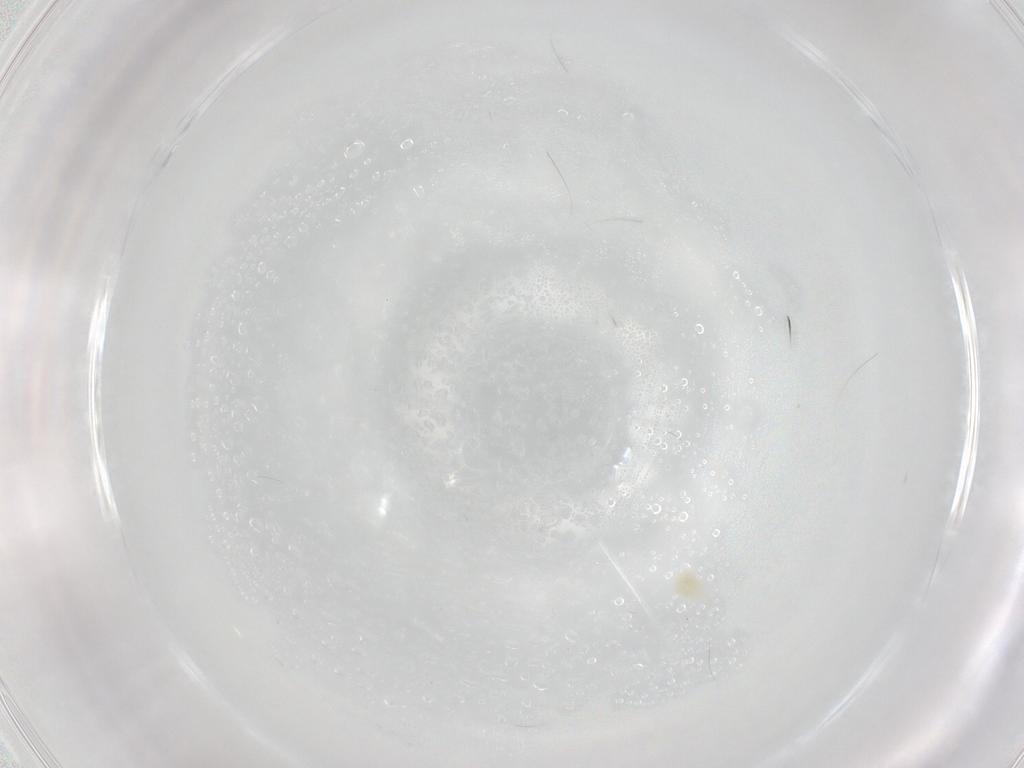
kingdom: Animalia
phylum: Arthropoda
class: Arachnida
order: Trombidiformes
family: Eupodidae
